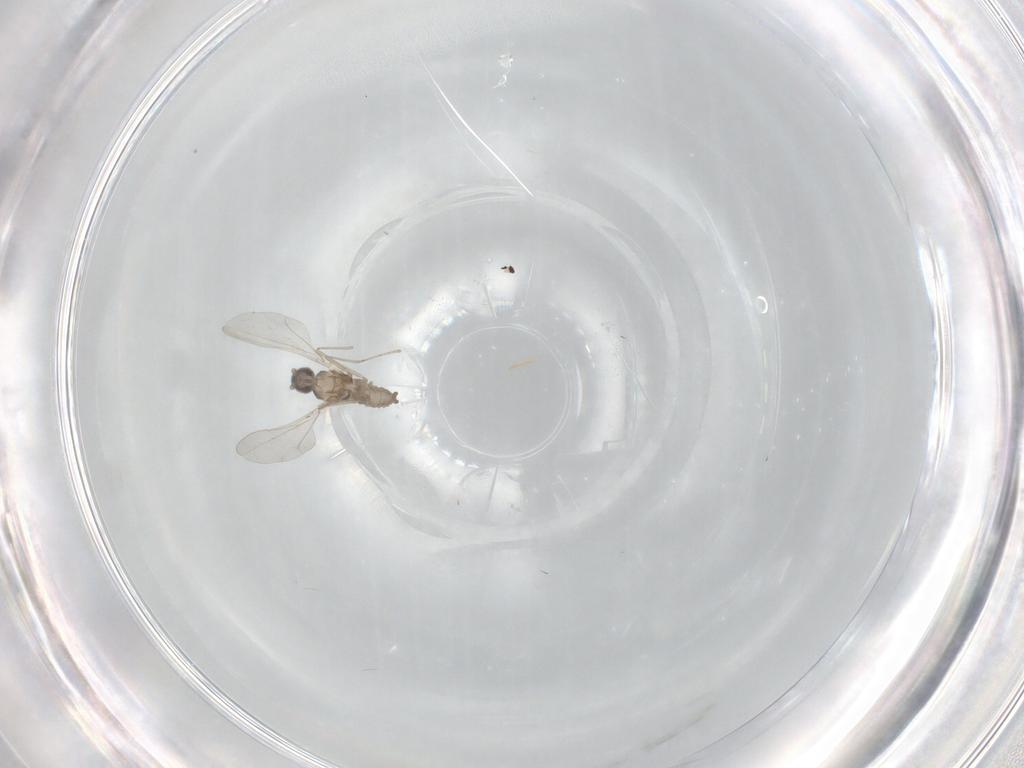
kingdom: Animalia
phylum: Arthropoda
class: Insecta
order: Diptera
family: Cecidomyiidae
